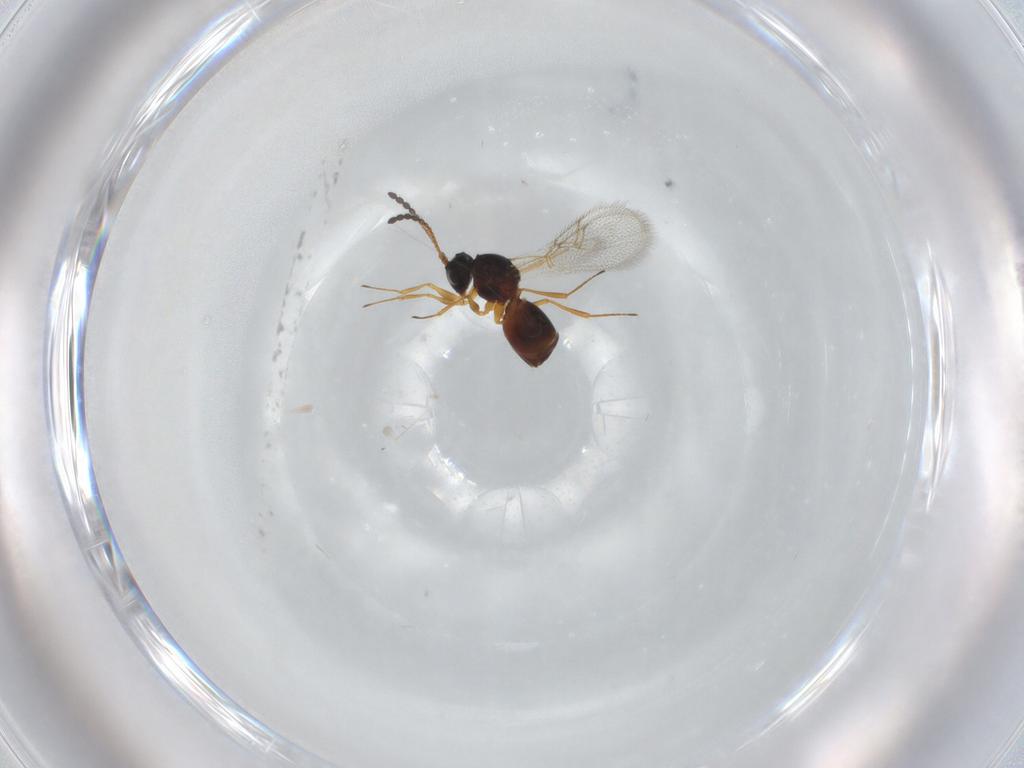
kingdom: Animalia
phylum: Arthropoda
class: Insecta
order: Hymenoptera
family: Figitidae
